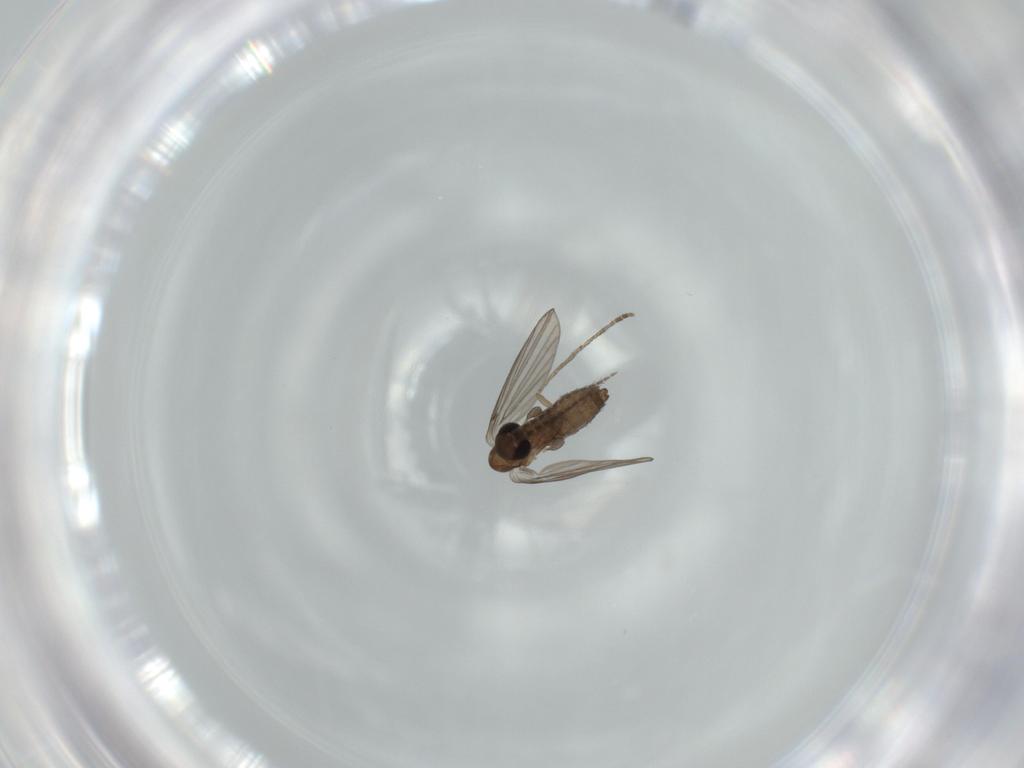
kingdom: Animalia
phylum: Arthropoda
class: Insecta
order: Diptera
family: Psychodidae
